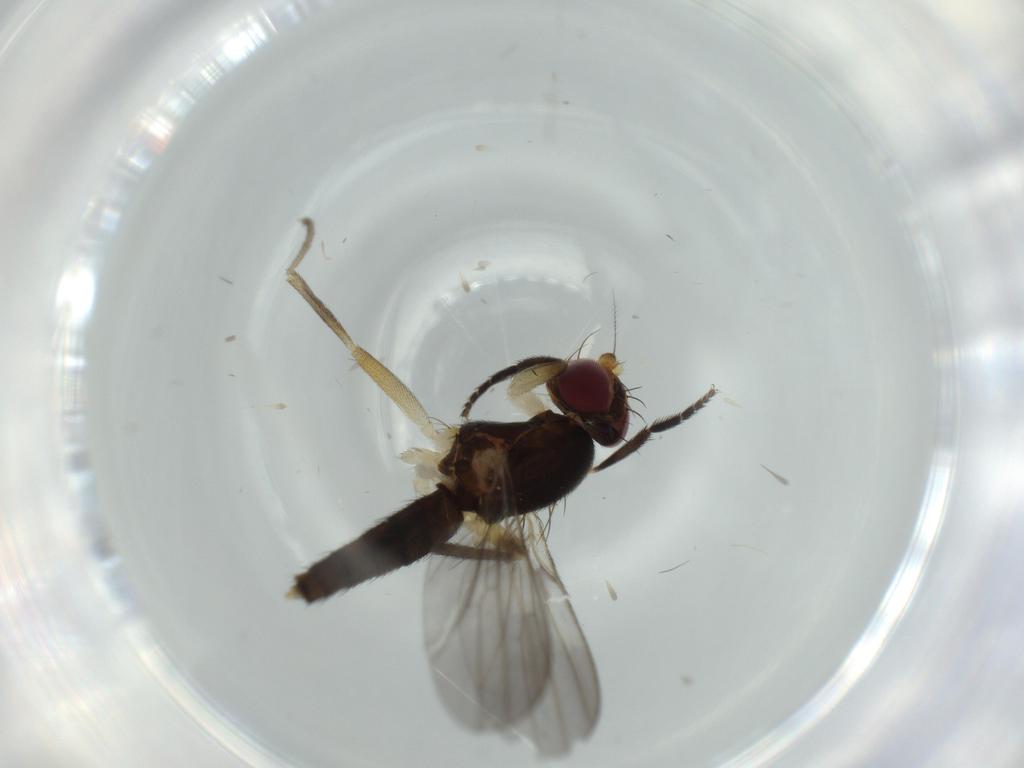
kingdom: Animalia
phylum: Arthropoda
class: Insecta
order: Diptera
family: Clusiidae
